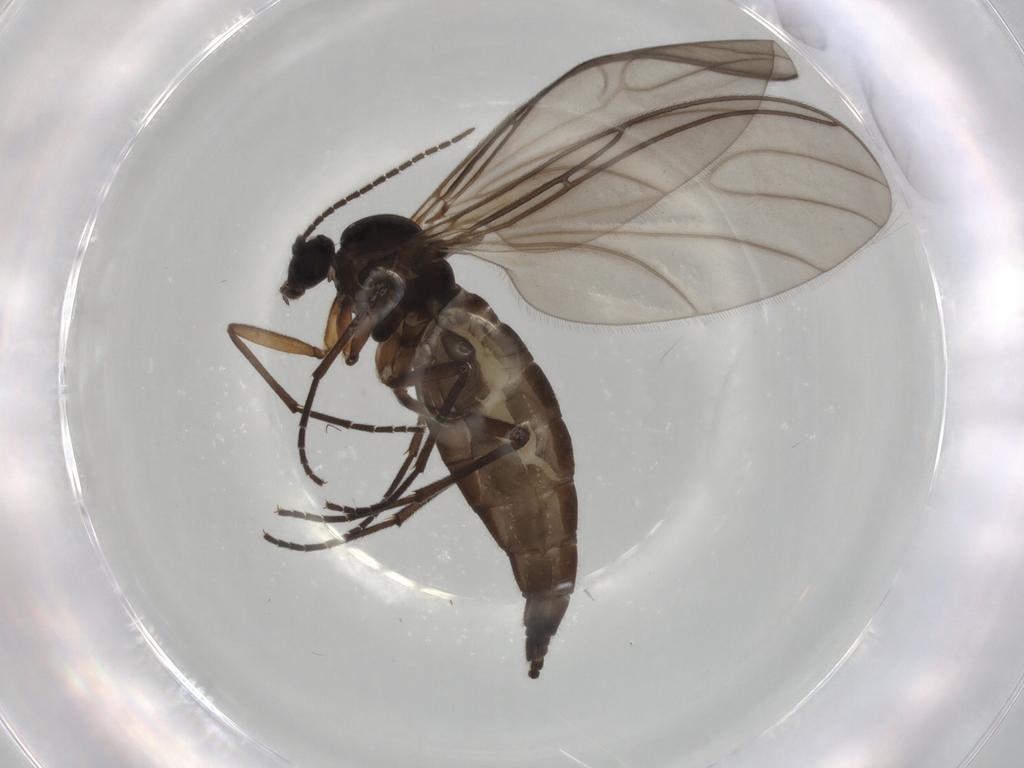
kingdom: Animalia
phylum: Arthropoda
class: Insecta
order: Diptera
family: Sciaridae
